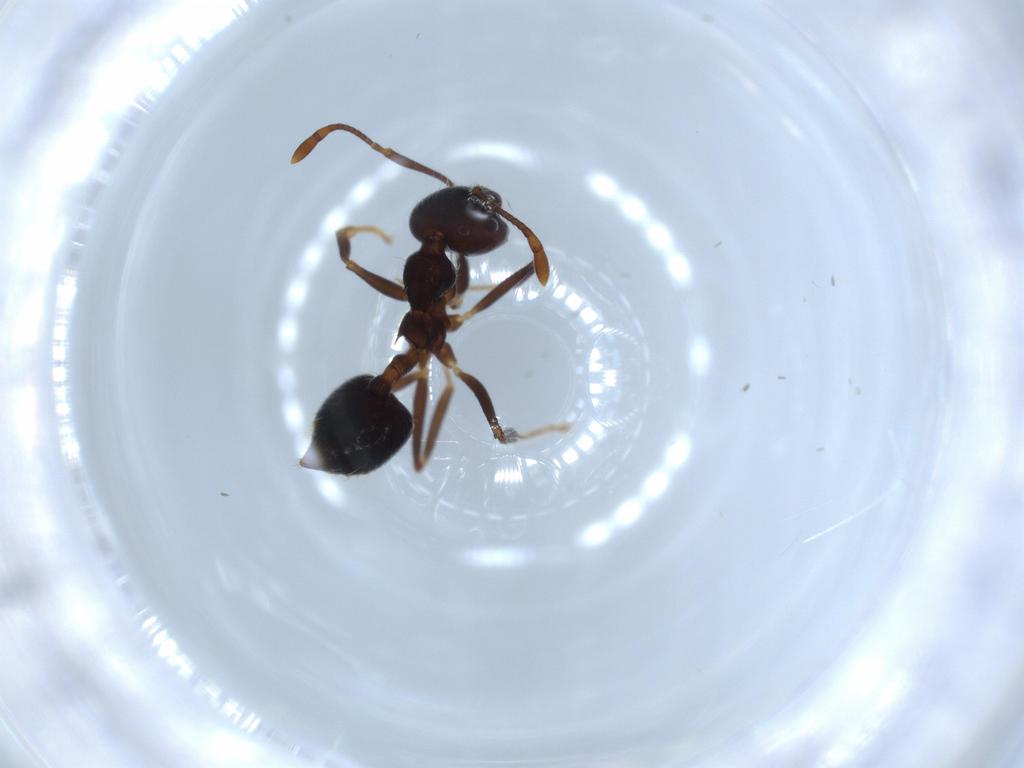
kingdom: Animalia
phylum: Arthropoda
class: Insecta
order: Hymenoptera
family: Formicidae
